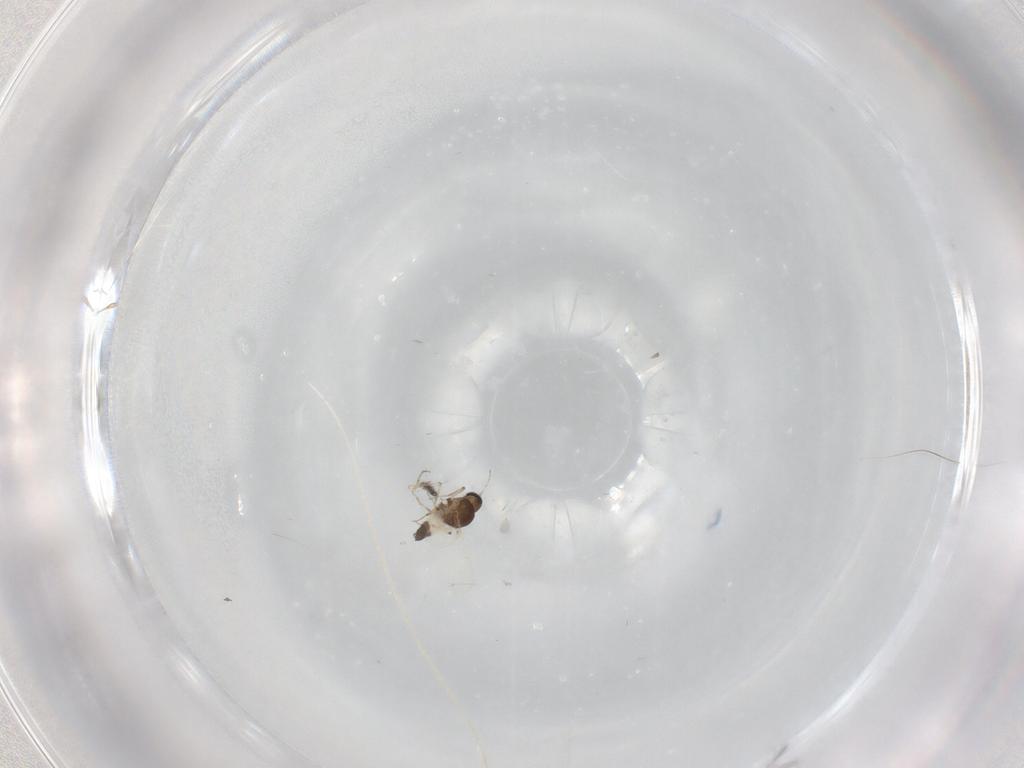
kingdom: Animalia
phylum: Arthropoda
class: Insecta
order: Diptera
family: Ceratopogonidae
